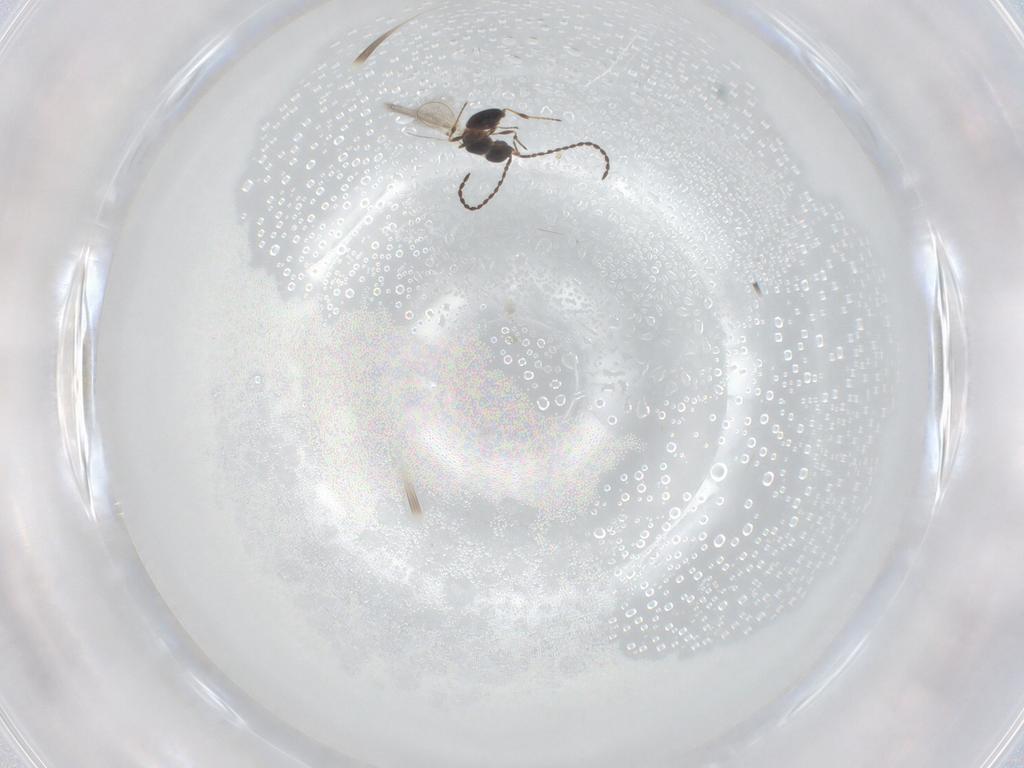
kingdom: Animalia
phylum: Arthropoda
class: Insecta
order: Hymenoptera
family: Diapriidae
